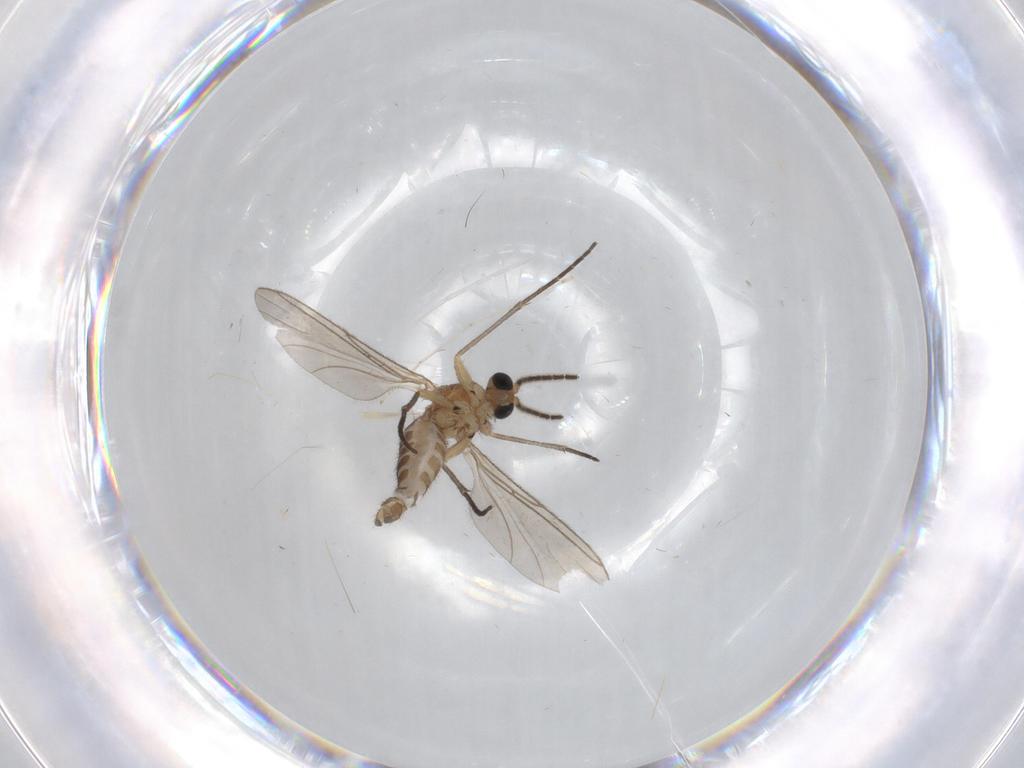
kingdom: Animalia
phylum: Arthropoda
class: Insecta
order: Diptera
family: Sciaridae
